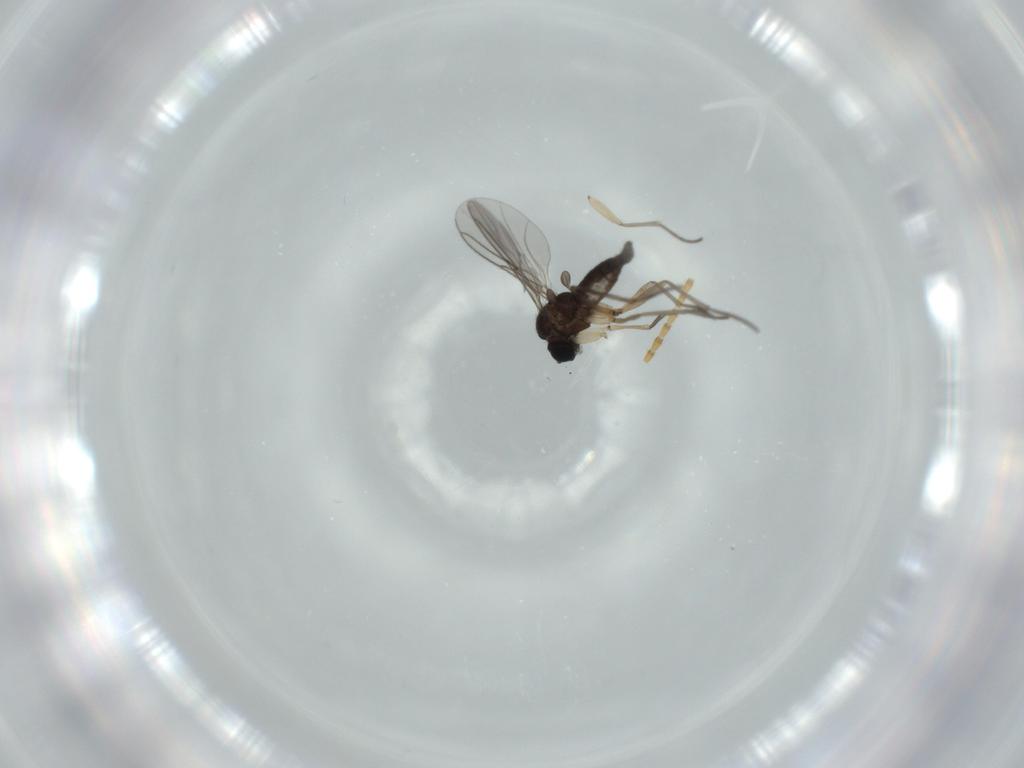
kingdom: Animalia
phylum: Arthropoda
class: Insecta
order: Diptera
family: Sciaridae
